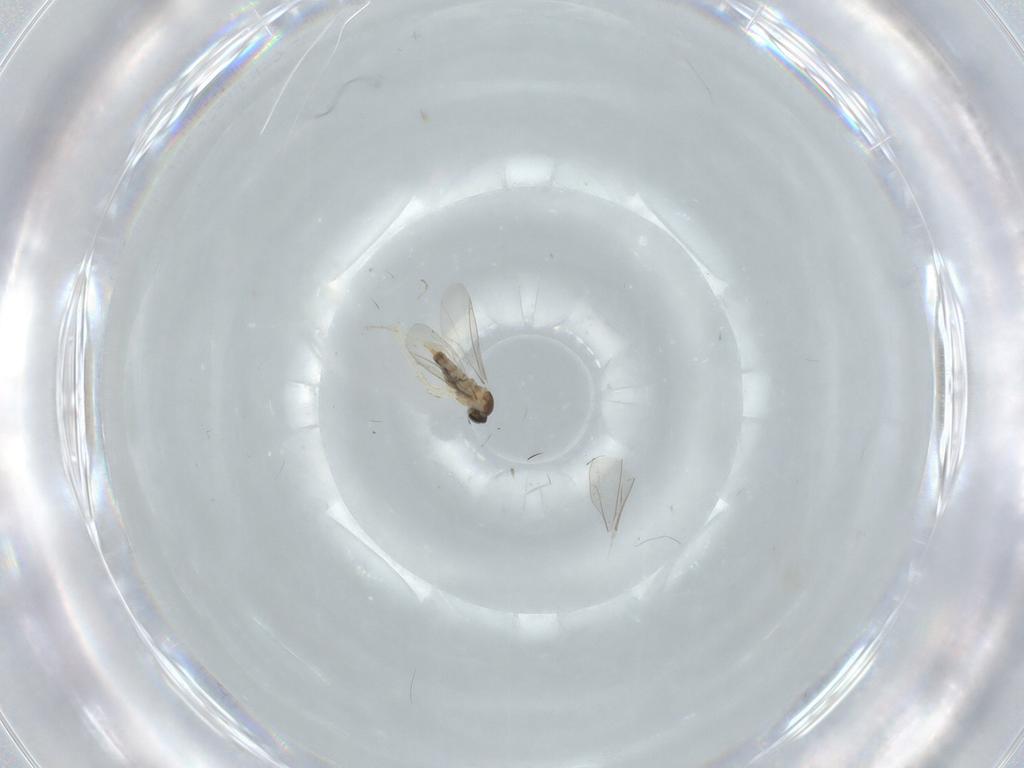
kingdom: Animalia
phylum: Arthropoda
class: Insecta
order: Diptera
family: Cecidomyiidae
